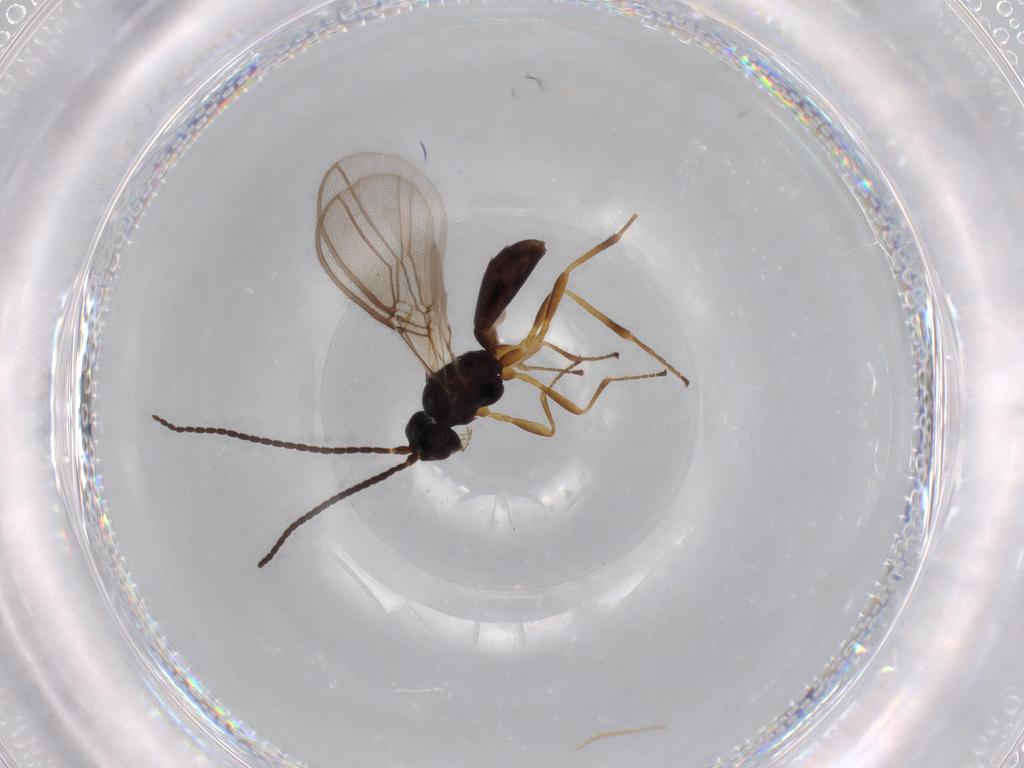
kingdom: Animalia
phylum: Arthropoda
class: Insecta
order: Hymenoptera
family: Braconidae
